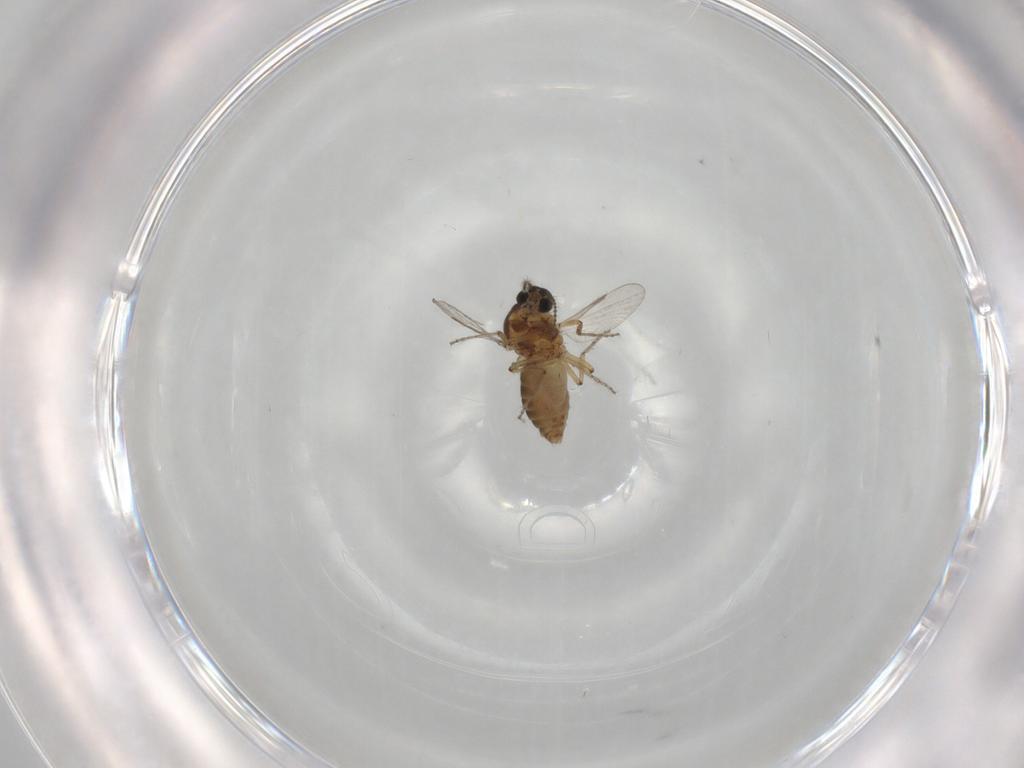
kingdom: Animalia
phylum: Arthropoda
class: Insecta
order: Diptera
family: Ceratopogonidae
